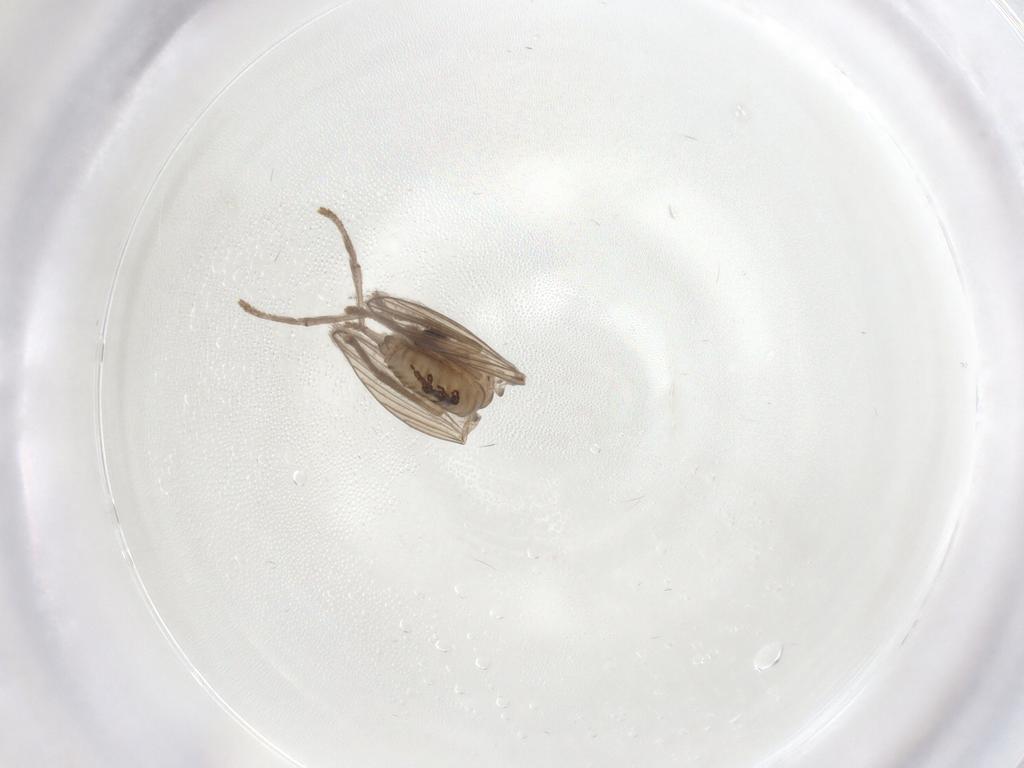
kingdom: Animalia
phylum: Arthropoda
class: Insecta
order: Diptera
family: Psychodidae
